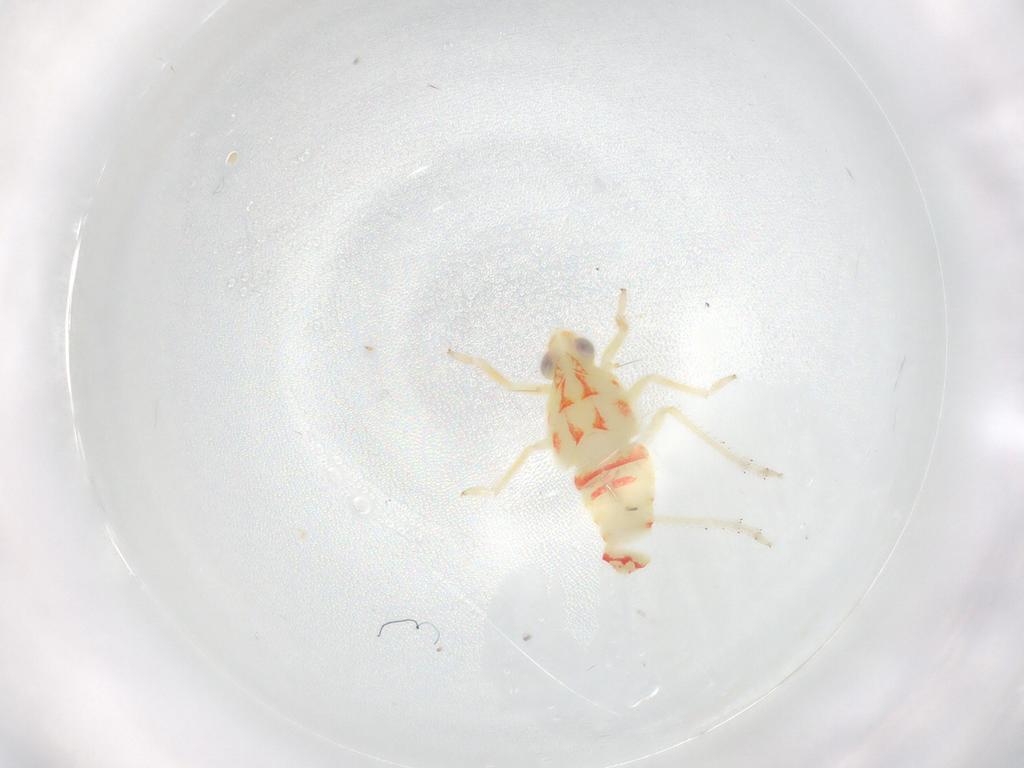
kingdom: Animalia
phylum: Arthropoda
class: Insecta
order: Hemiptera
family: Tropiduchidae
